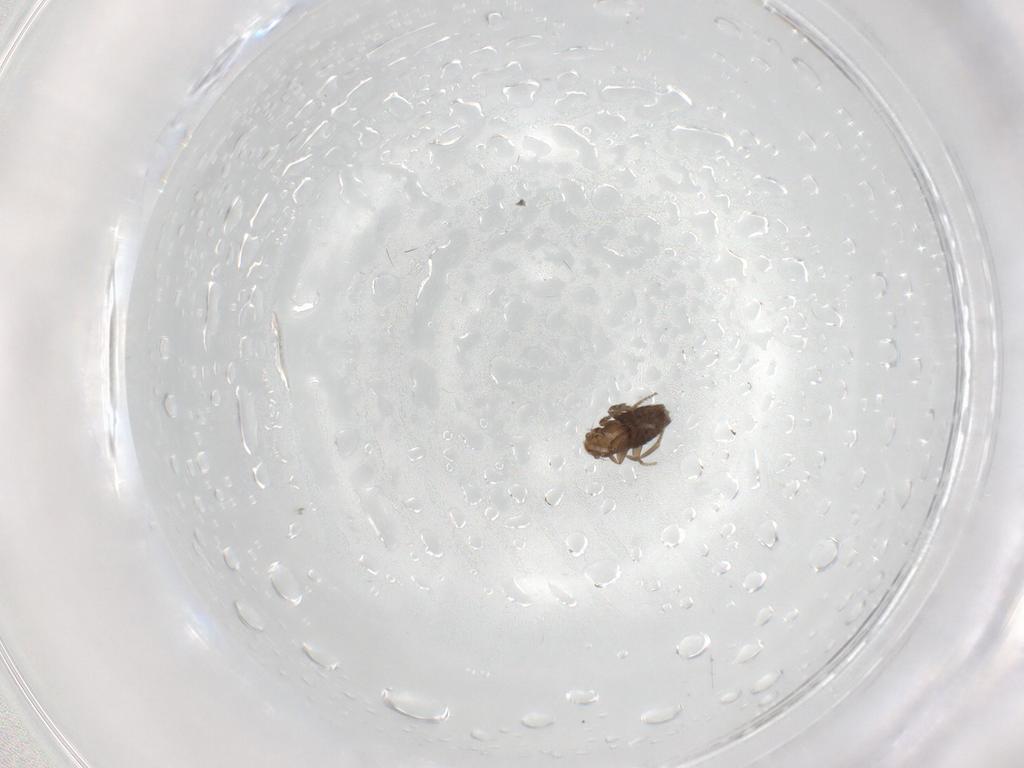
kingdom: Animalia
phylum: Arthropoda
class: Insecta
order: Diptera
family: Phoridae
